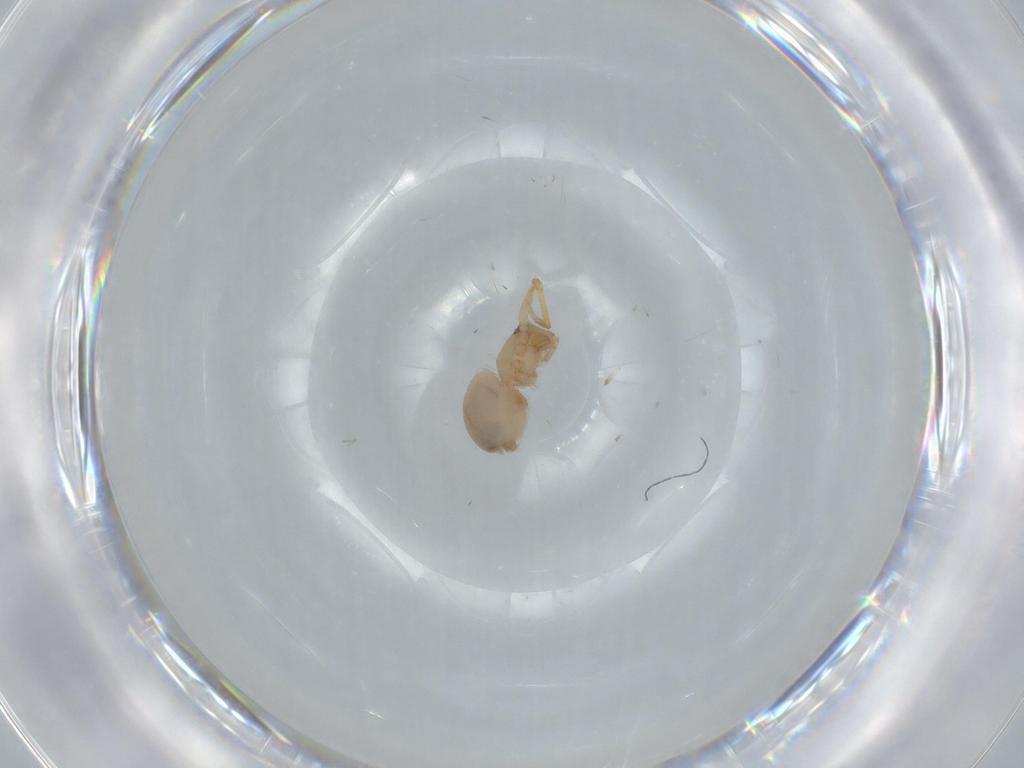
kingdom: Animalia
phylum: Arthropoda
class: Arachnida
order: Araneae
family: Oonopidae
